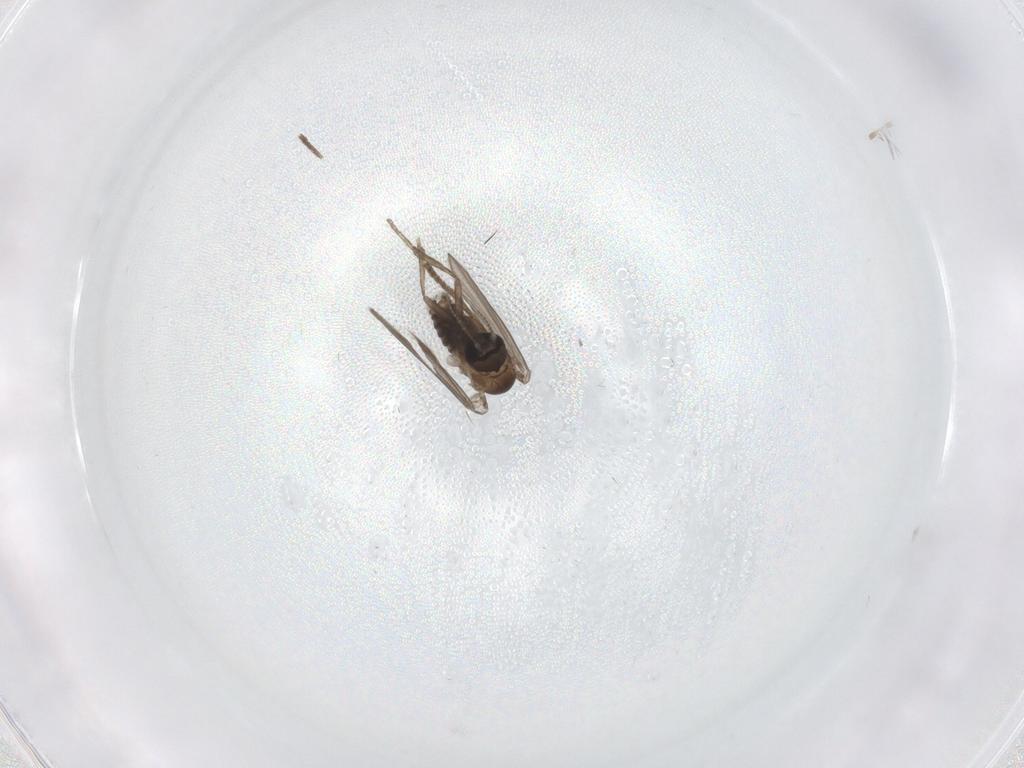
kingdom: Animalia
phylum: Arthropoda
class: Insecta
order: Diptera
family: Psychodidae
